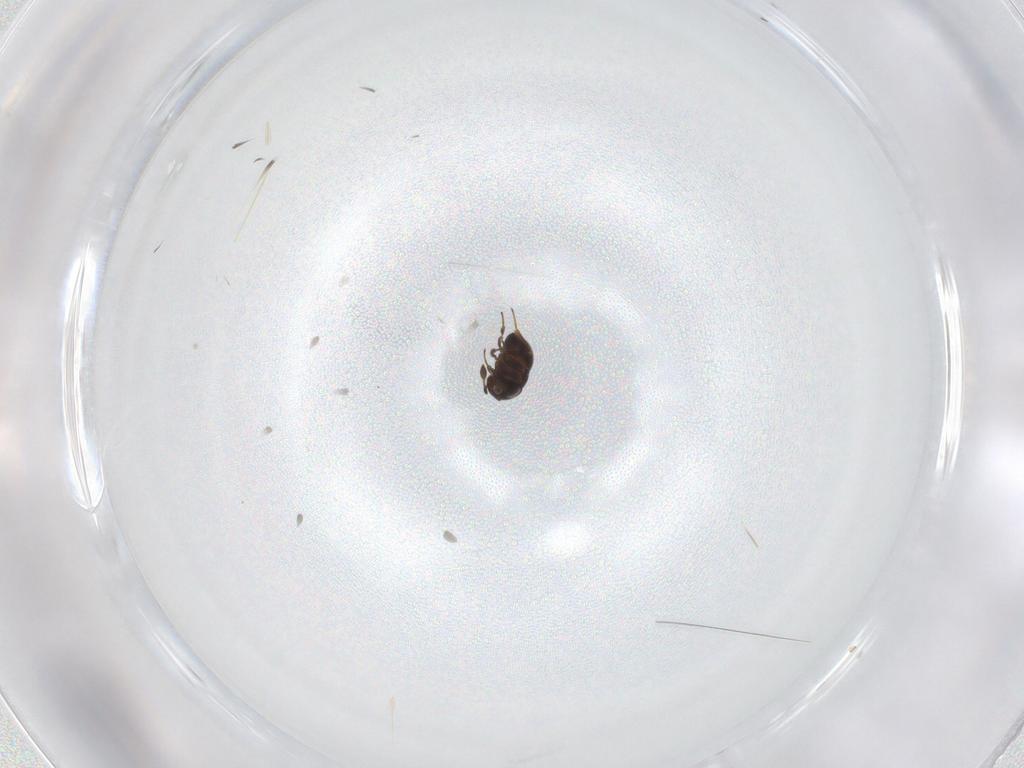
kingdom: Animalia
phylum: Arthropoda
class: Insecta
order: Hymenoptera
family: Scelionidae
